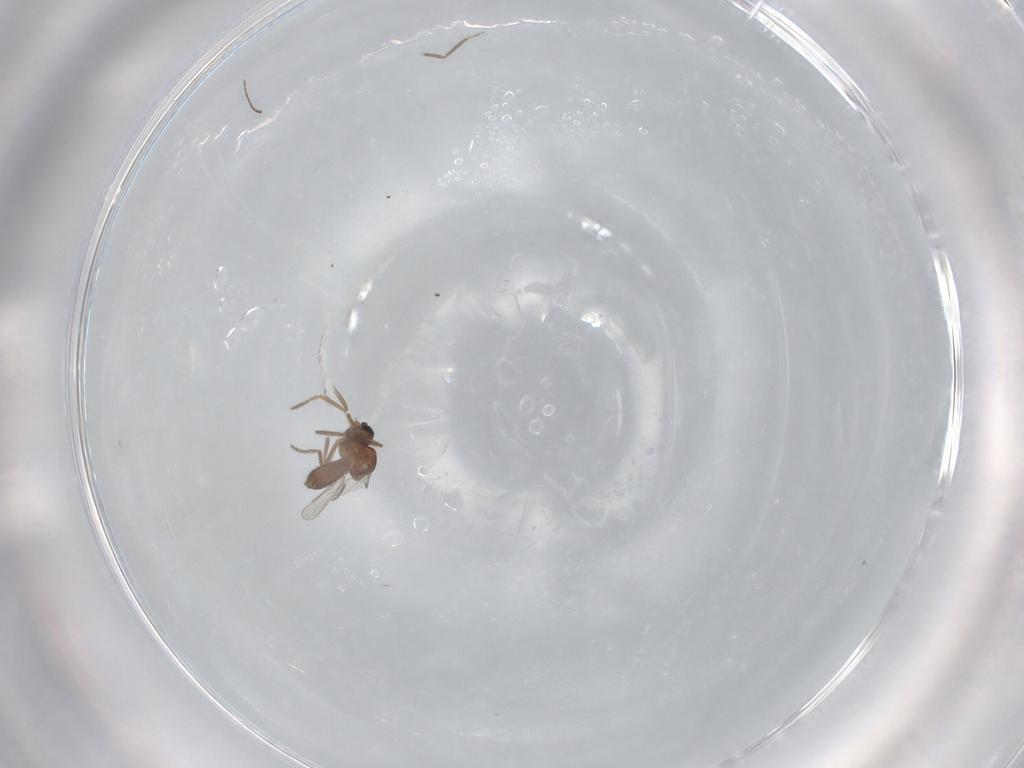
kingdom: Animalia
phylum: Arthropoda
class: Insecta
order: Diptera
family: Ceratopogonidae
